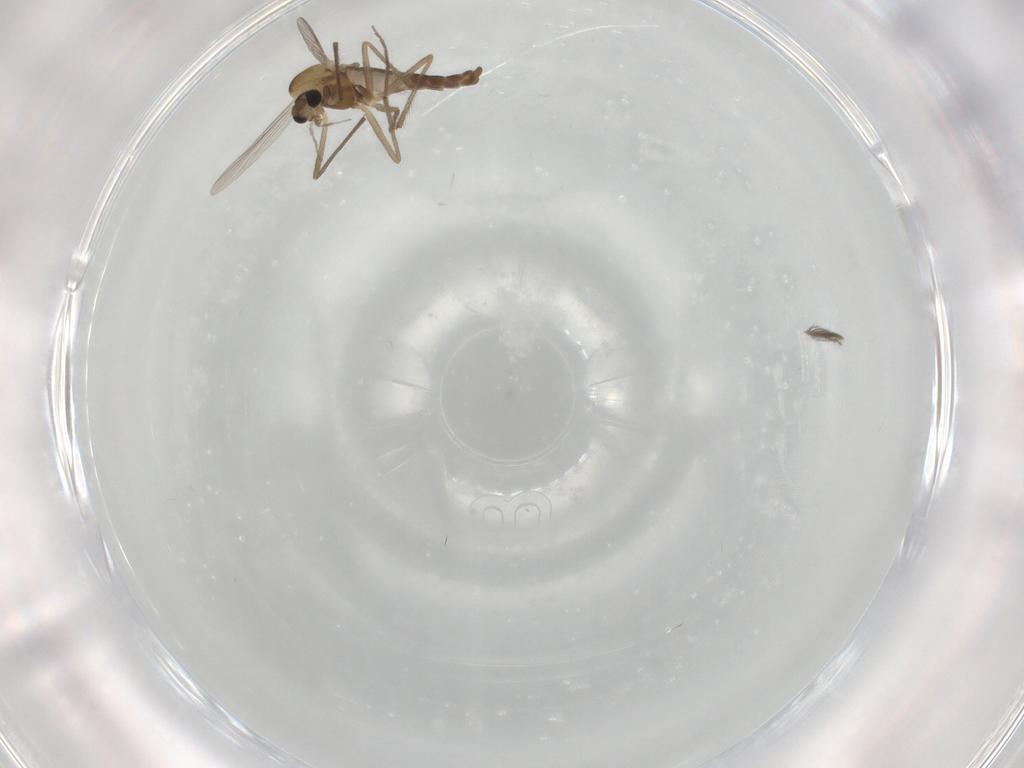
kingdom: Animalia
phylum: Arthropoda
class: Insecta
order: Diptera
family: Chironomidae
